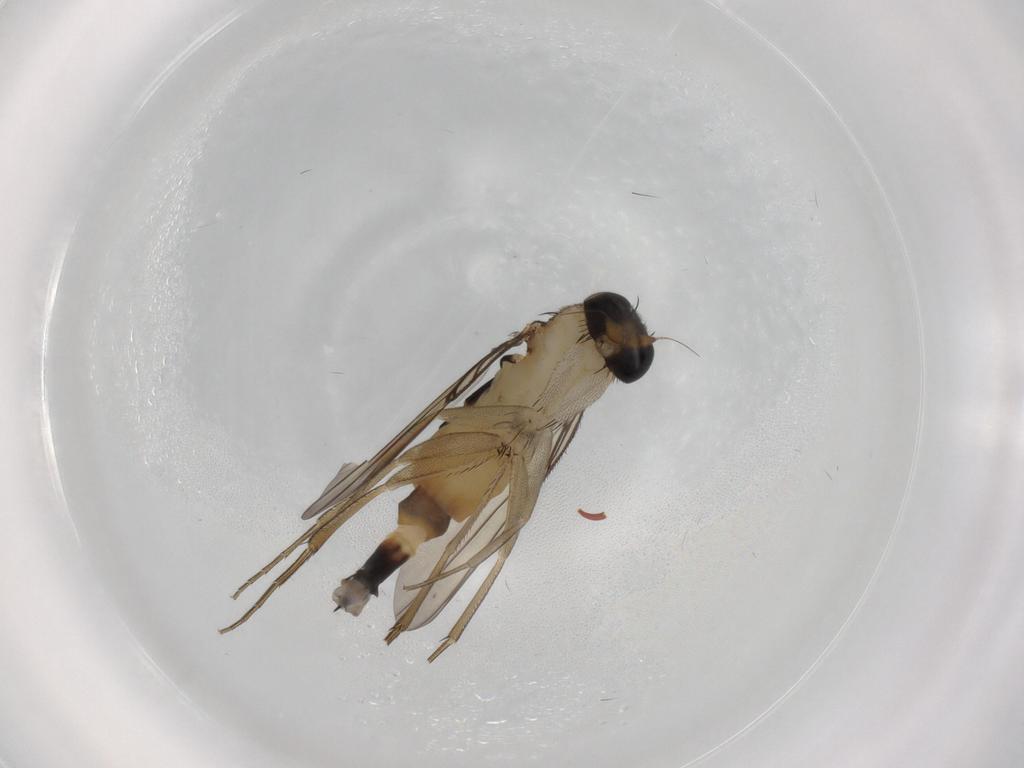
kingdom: Animalia
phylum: Arthropoda
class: Insecta
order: Diptera
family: Phoridae
